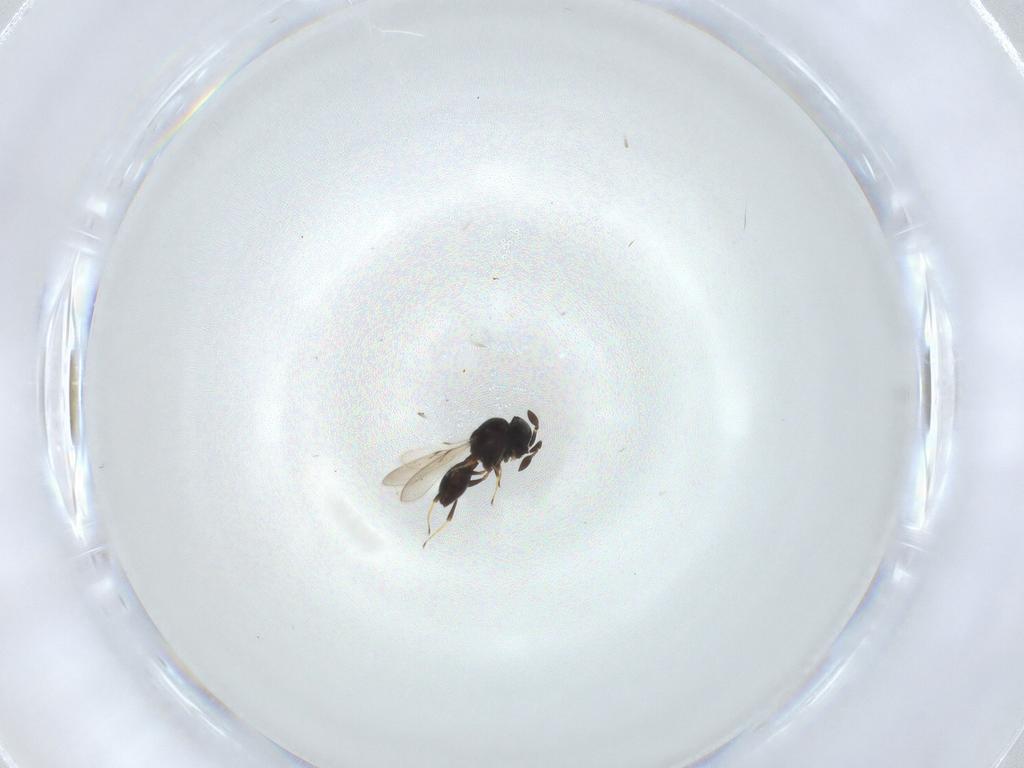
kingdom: Animalia
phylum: Arthropoda
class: Insecta
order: Hymenoptera
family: Scelionidae
